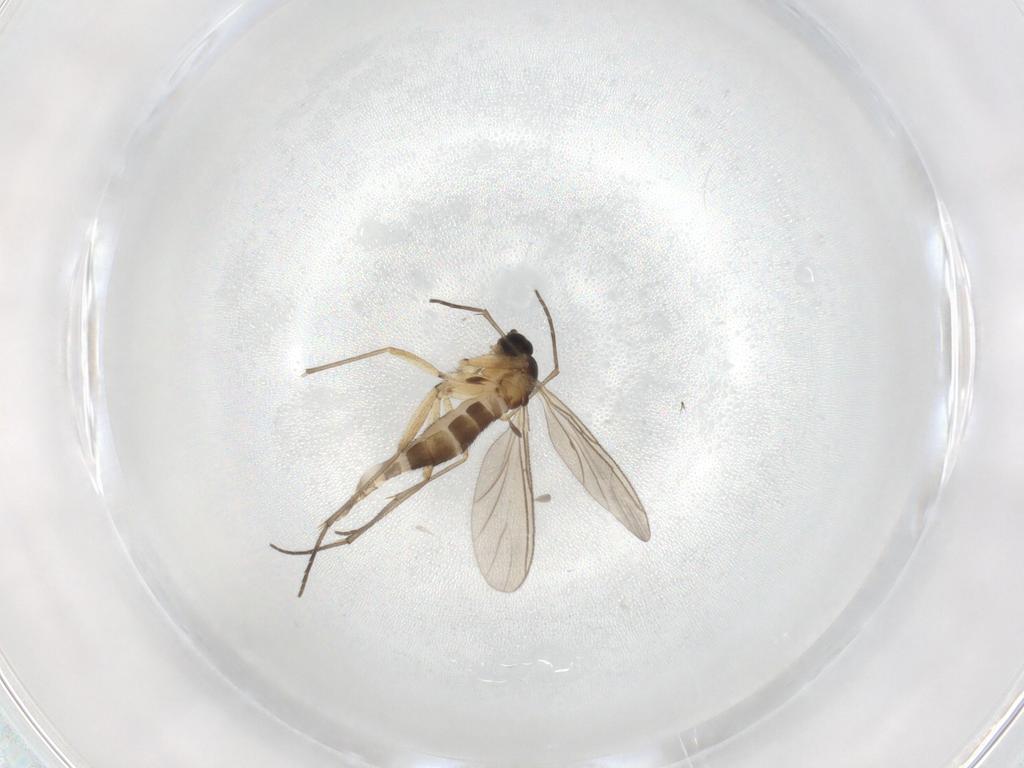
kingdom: Animalia
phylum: Arthropoda
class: Insecta
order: Diptera
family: Sciaridae
